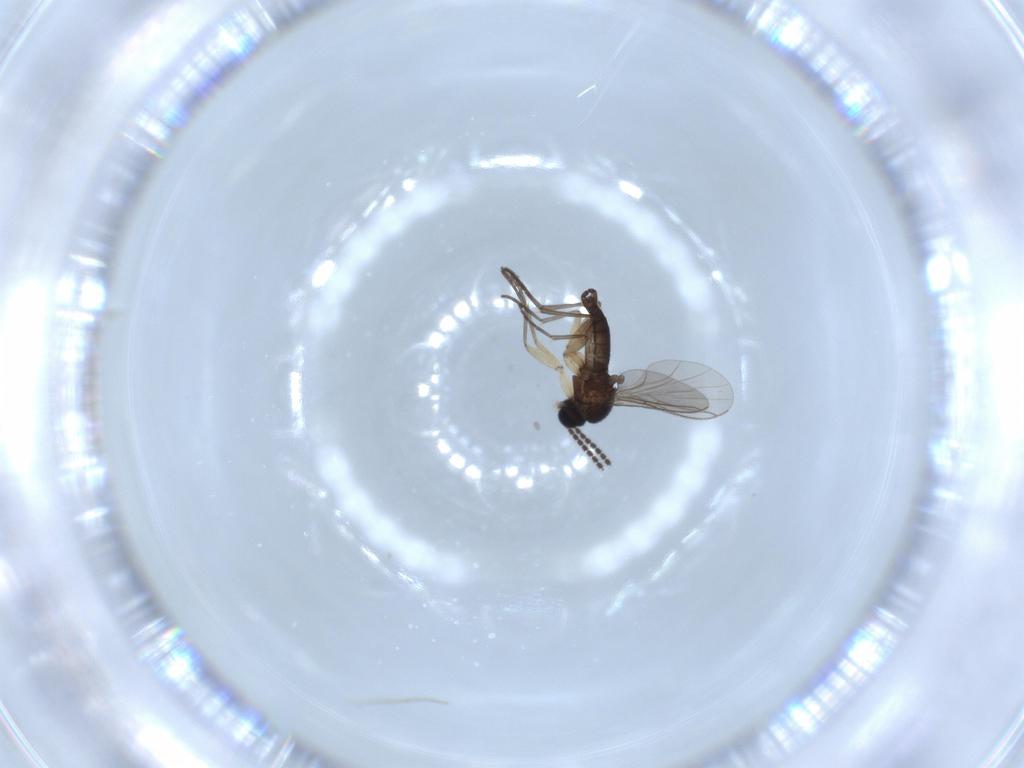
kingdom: Animalia
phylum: Arthropoda
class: Insecta
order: Diptera
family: Sciaridae
